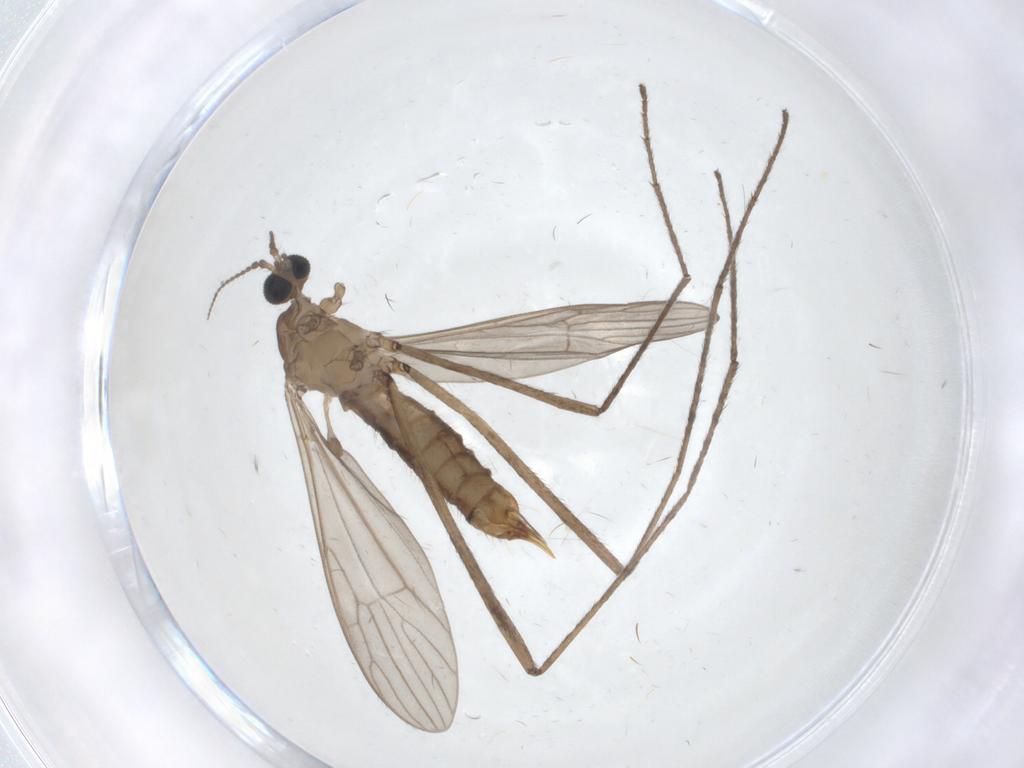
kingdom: Animalia
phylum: Arthropoda
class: Insecta
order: Diptera
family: Limoniidae
